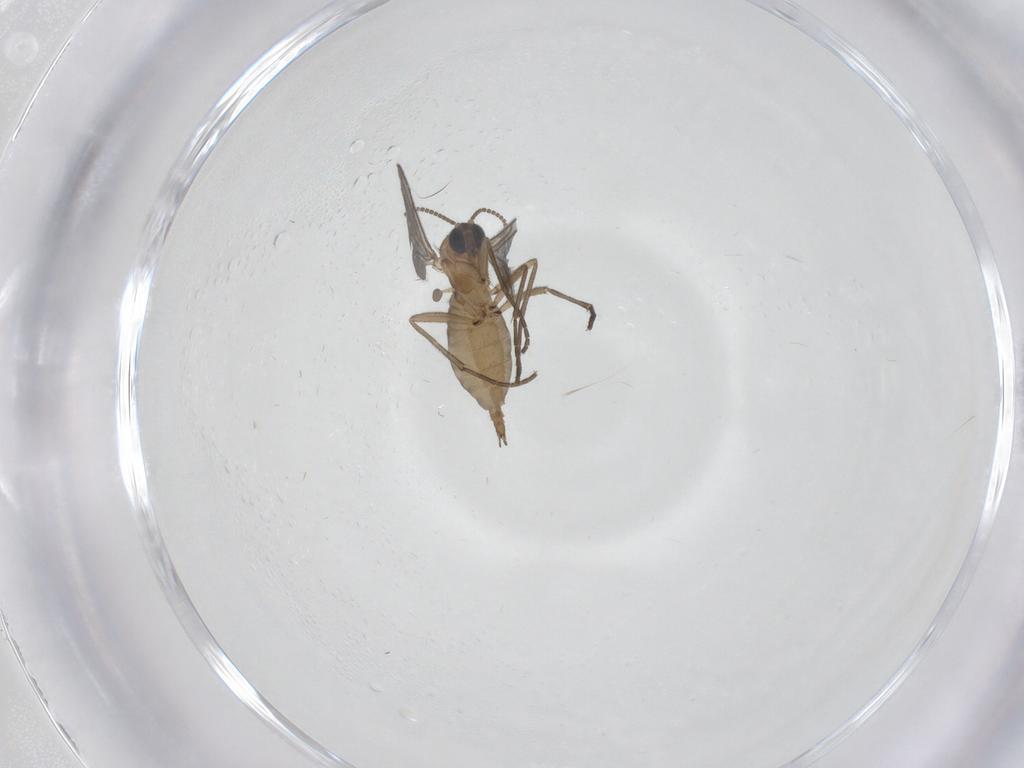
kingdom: Animalia
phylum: Arthropoda
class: Insecta
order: Diptera
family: Sciaridae
